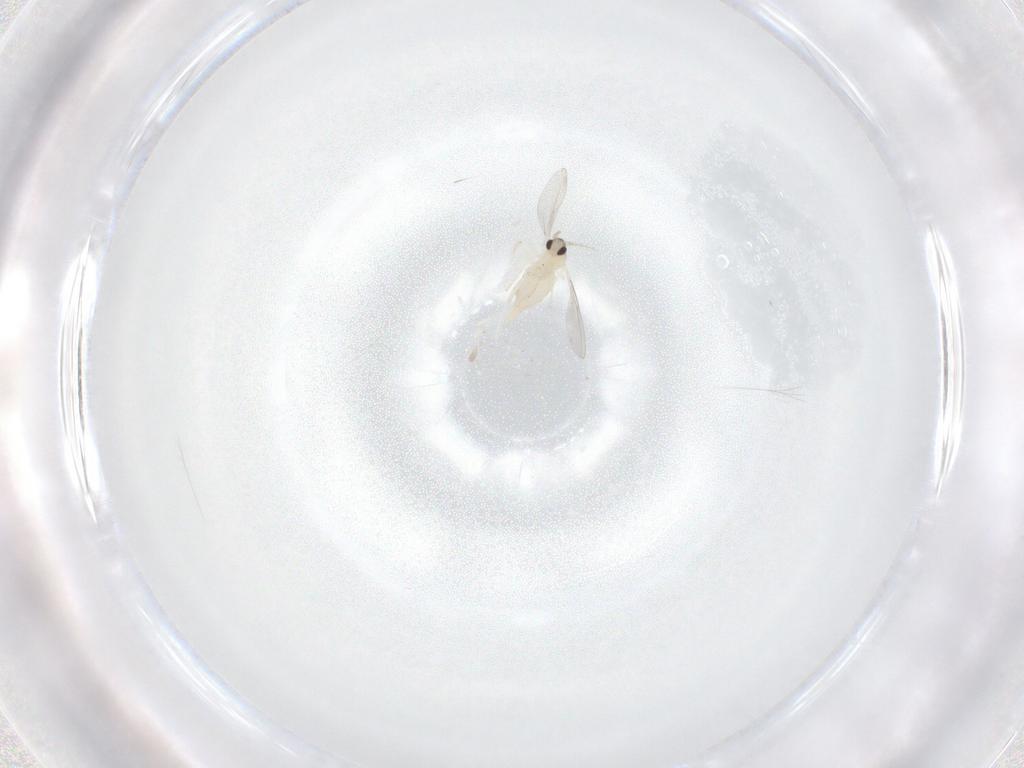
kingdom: Animalia
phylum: Arthropoda
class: Insecta
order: Diptera
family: Cecidomyiidae
